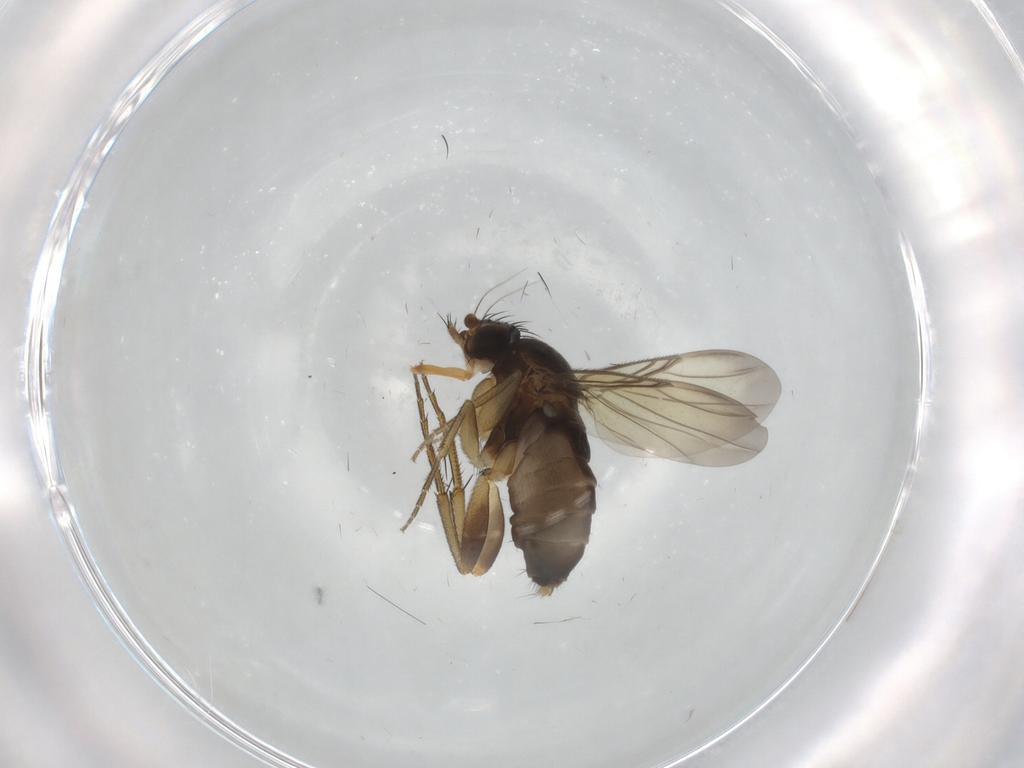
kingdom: Animalia
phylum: Arthropoda
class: Insecta
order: Diptera
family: Phoridae
